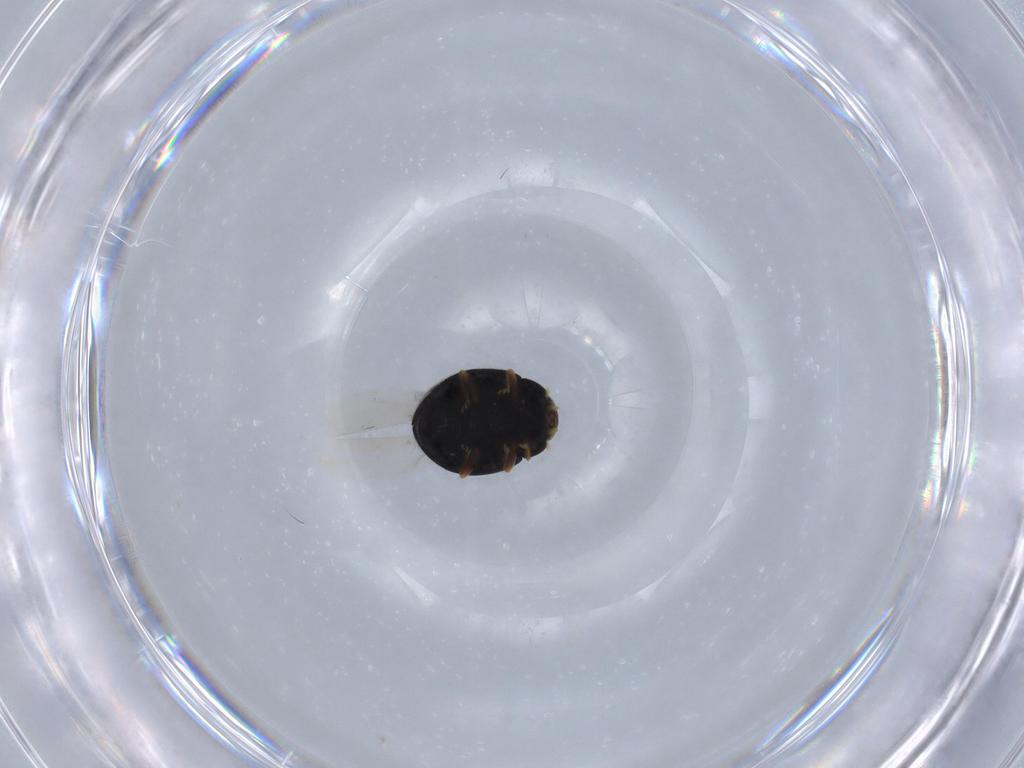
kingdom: Animalia
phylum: Arthropoda
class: Insecta
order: Coleoptera
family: Coccinellidae
